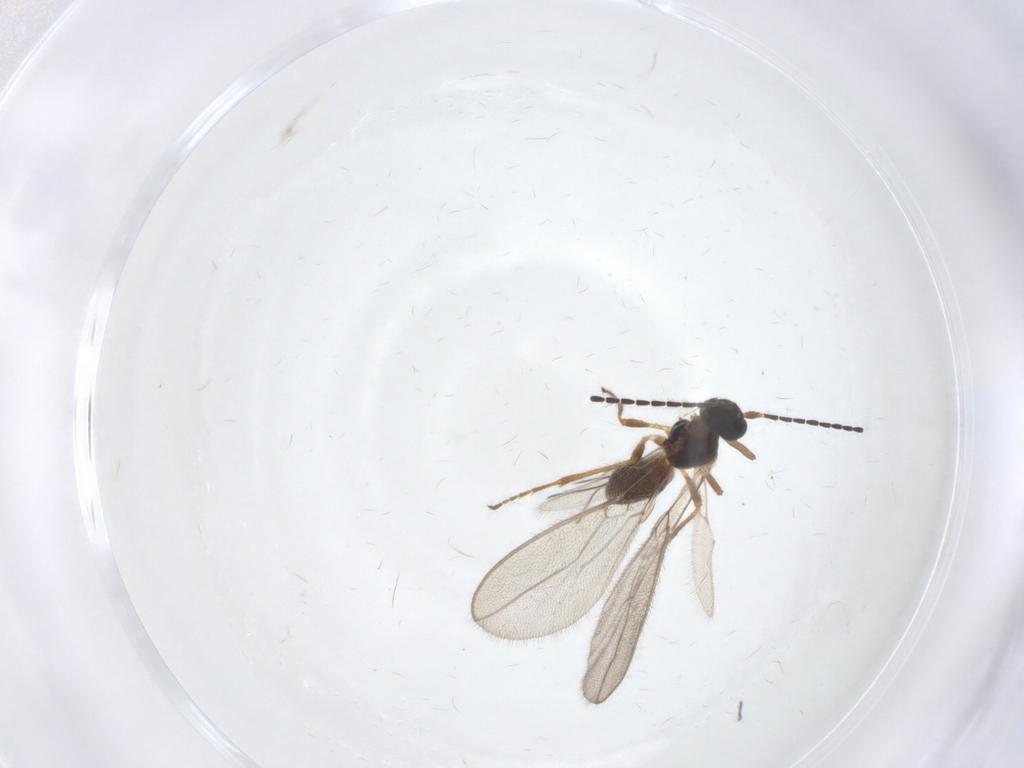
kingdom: Animalia
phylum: Arthropoda
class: Insecta
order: Hymenoptera
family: Braconidae
